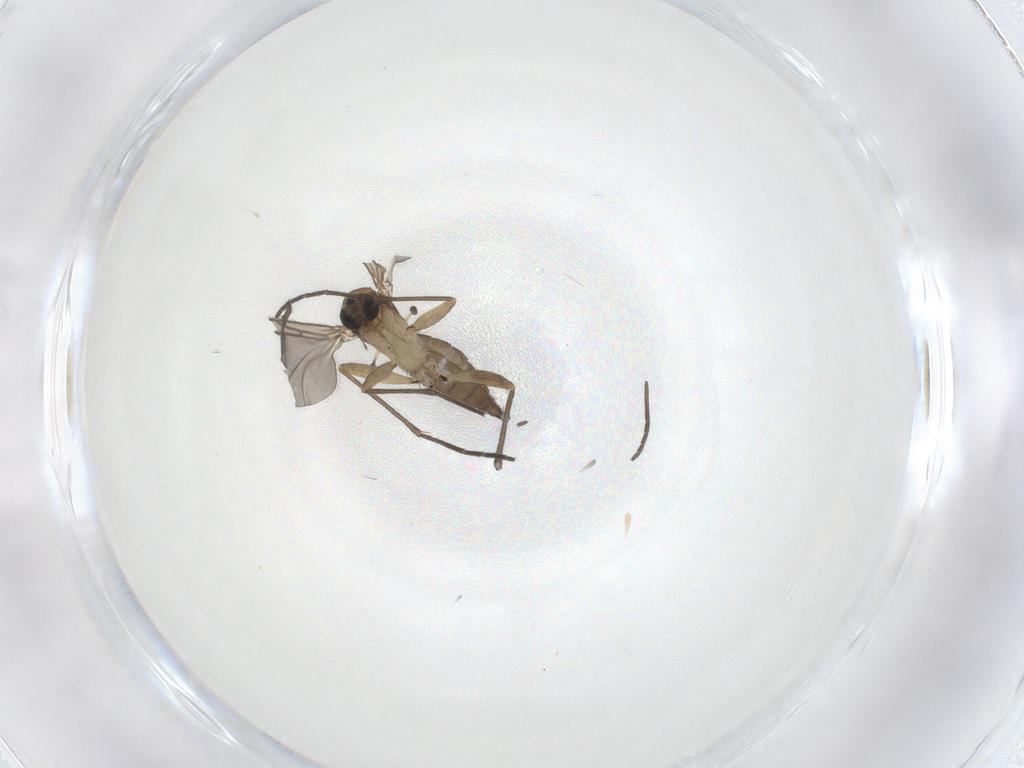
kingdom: Animalia
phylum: Arthropoda
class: Insecta
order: Diptera
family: Sciaridae
